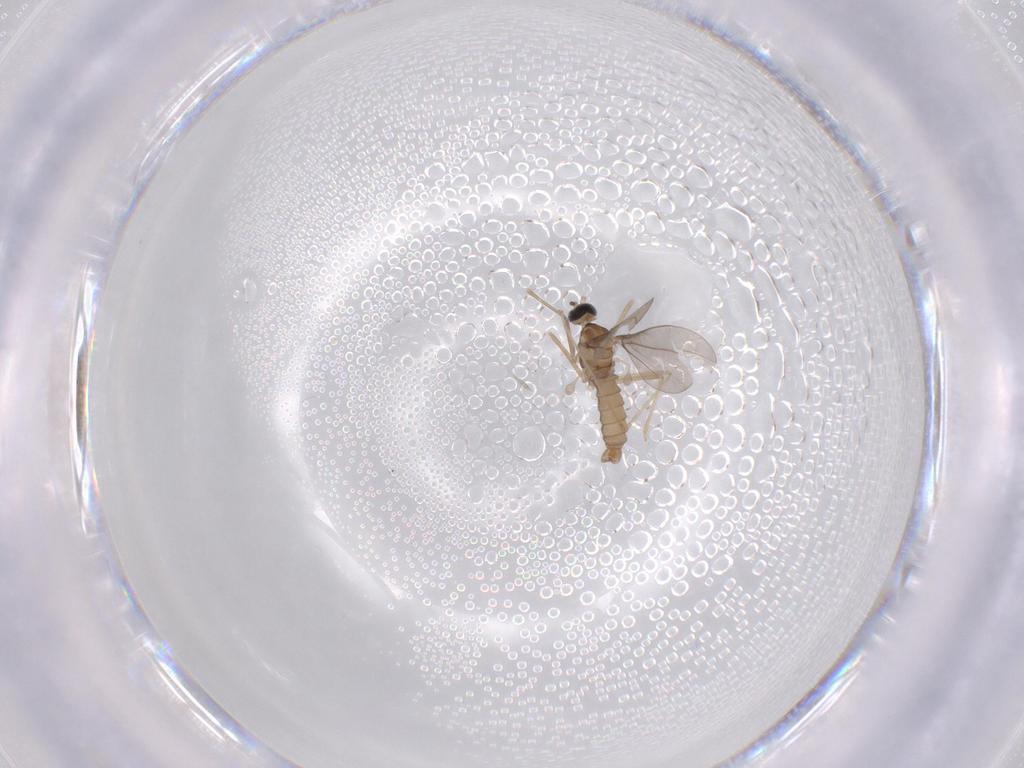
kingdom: Animalia
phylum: Arthropoda
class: Insecta
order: Diptera
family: Cecidomyiidae
